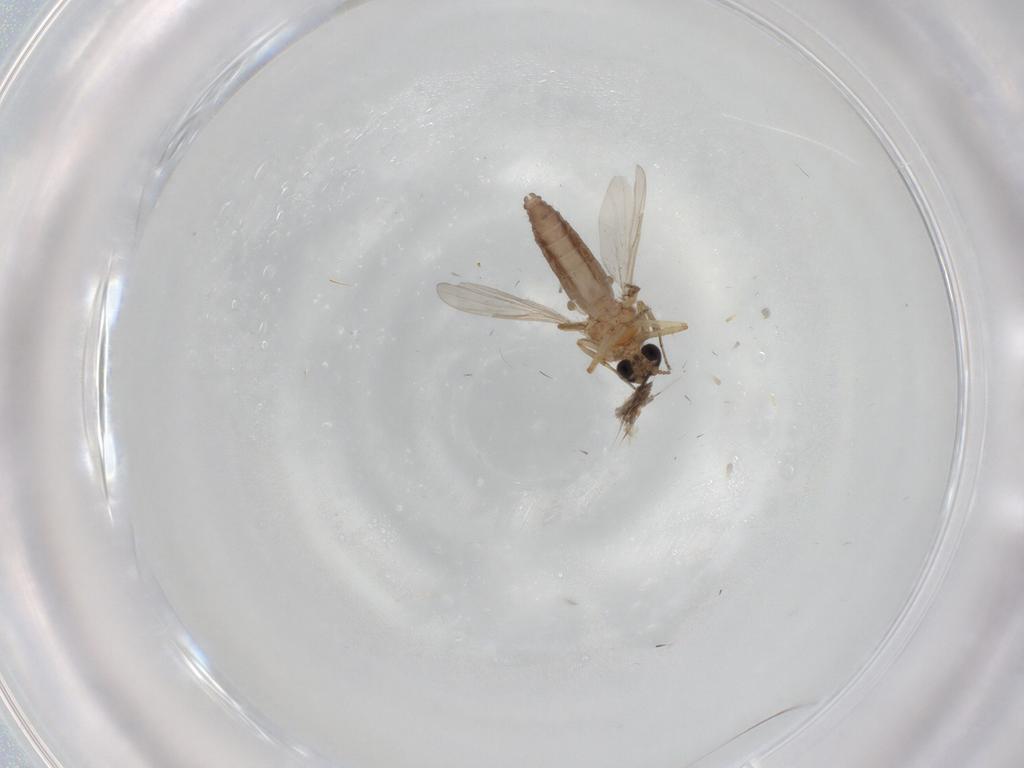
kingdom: Animalia
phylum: Arthropoda
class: Insecta
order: Diptera
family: Ceratopogonidae
